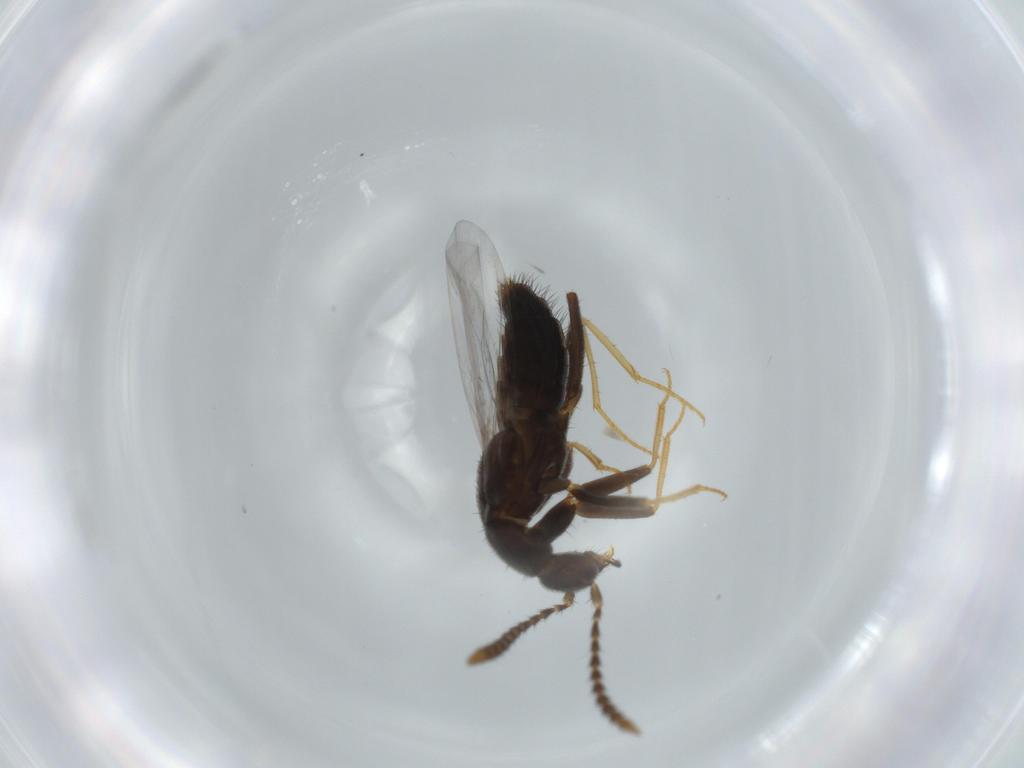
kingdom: Animalia
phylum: Arthropoda
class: Insecta
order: Coleoptera
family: Staphylinidae
